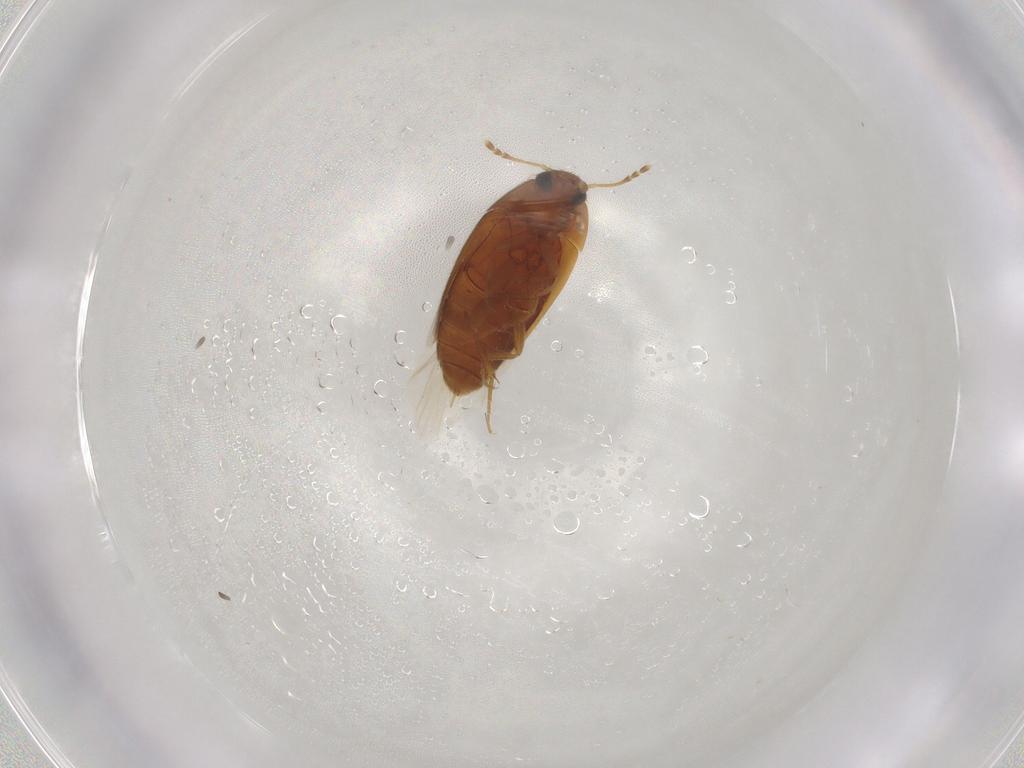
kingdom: Animalia
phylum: Arthropoda
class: Insecta
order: Coleoptera
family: Mycetophagidae
